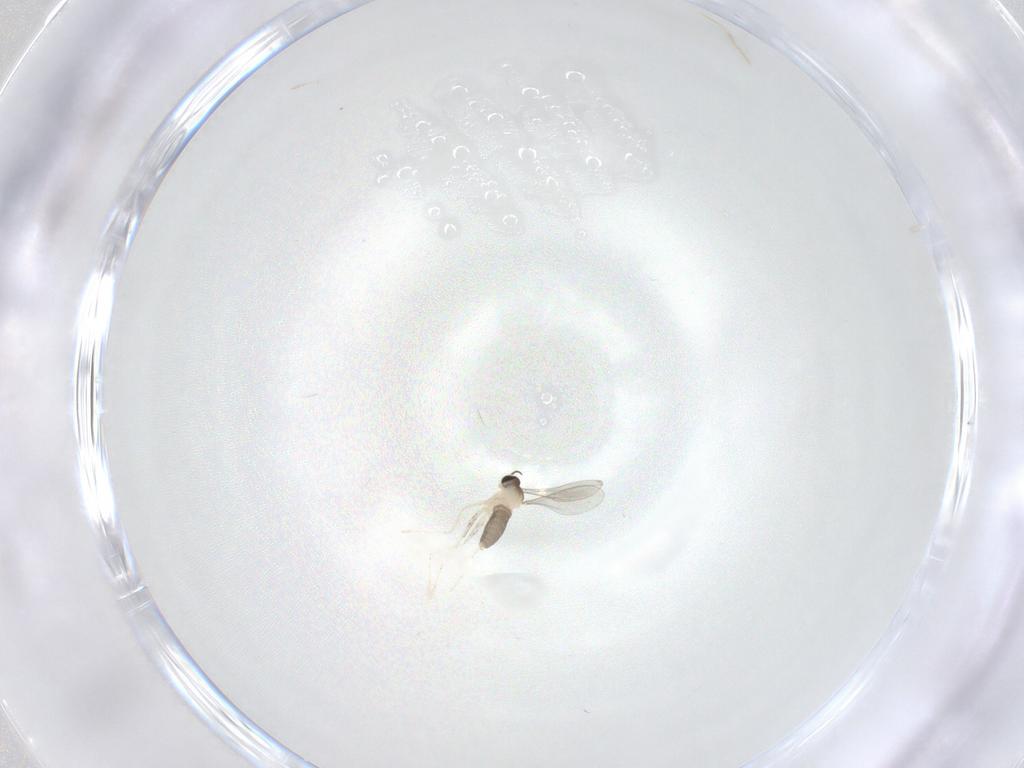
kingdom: Animalia
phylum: Arthropoda
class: Insecta
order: Diptera
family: Cecidomyiidae
